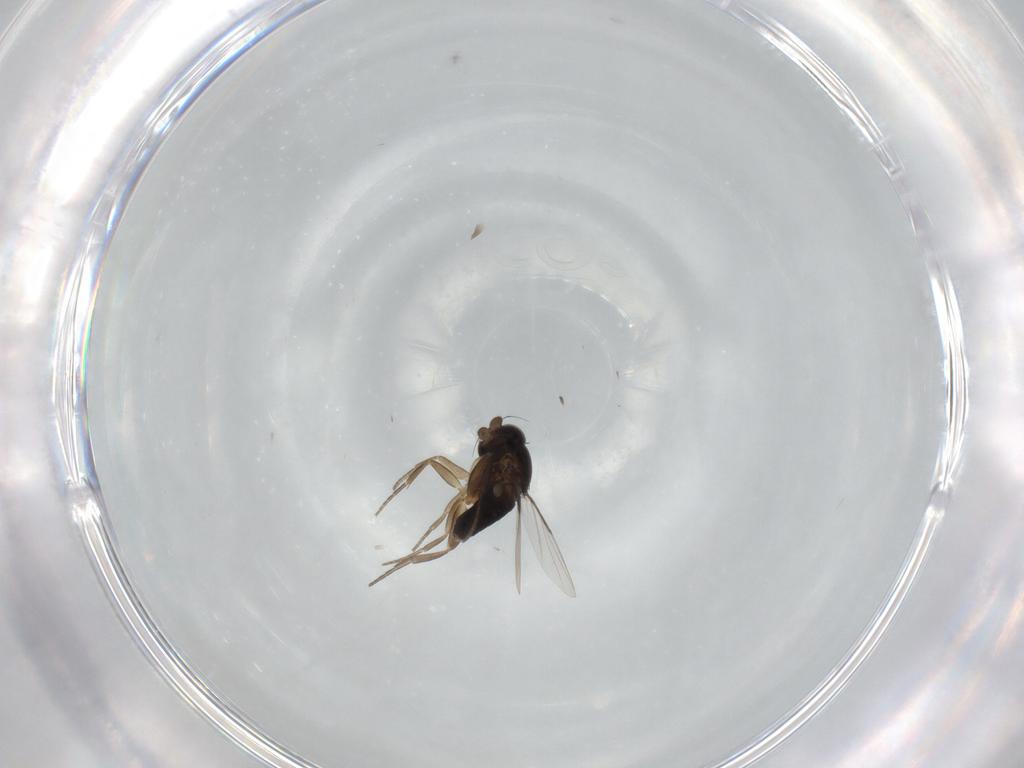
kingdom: Animalia
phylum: Arthropoda
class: Insecta
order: Diptera
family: Phoridae
